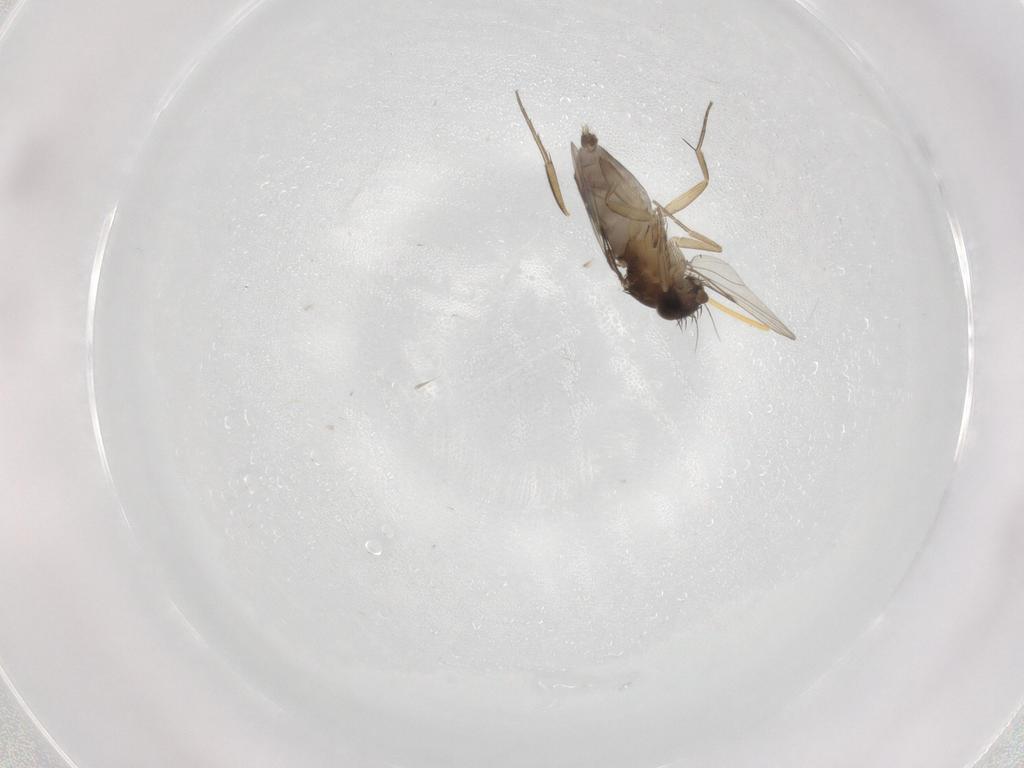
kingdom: Animalia
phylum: Arthropoda
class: Insecta
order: Diptera
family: Phoridae
